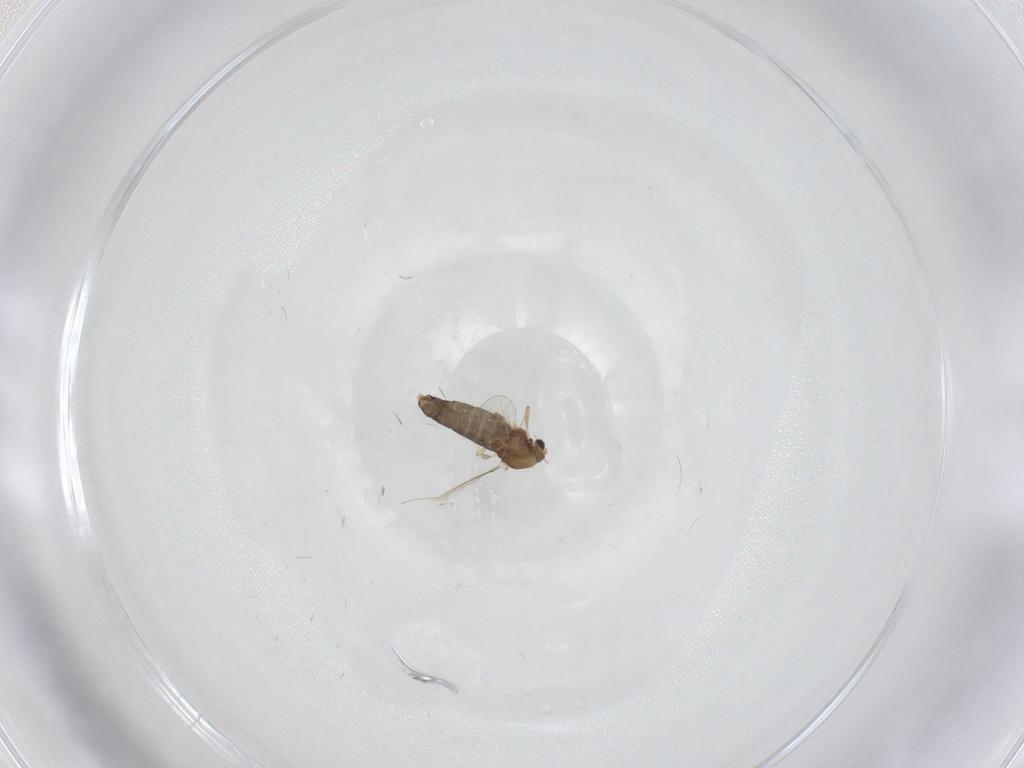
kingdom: Animalia
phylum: Arthropoda
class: Insecta
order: Diptera
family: Chironomidae
